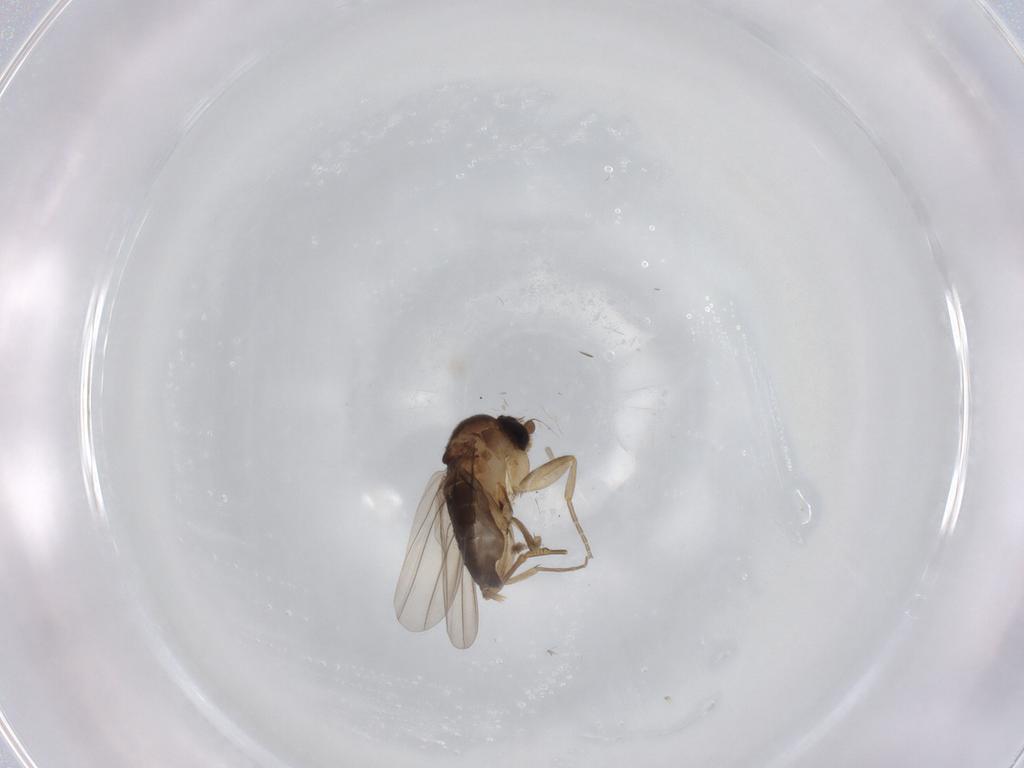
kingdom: Animalia
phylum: Arthropoda
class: Insecta
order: Diptera
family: Phoridae
